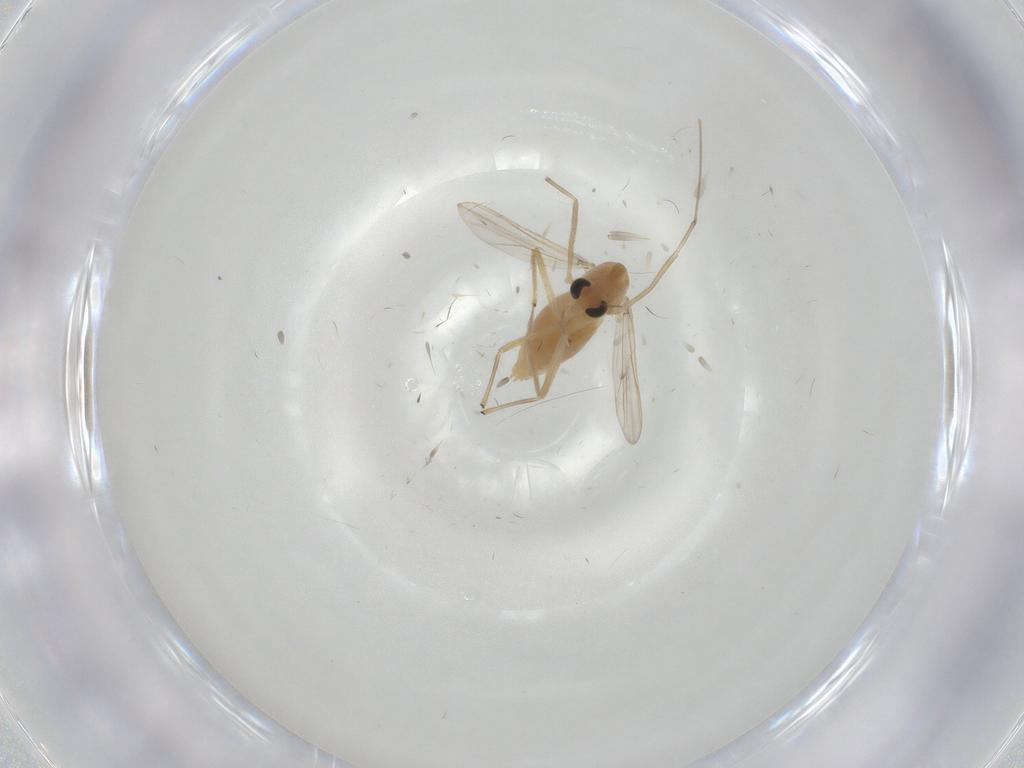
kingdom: Animalia
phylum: Arthropoda
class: Insecta
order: Diptera
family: Chironomidae
